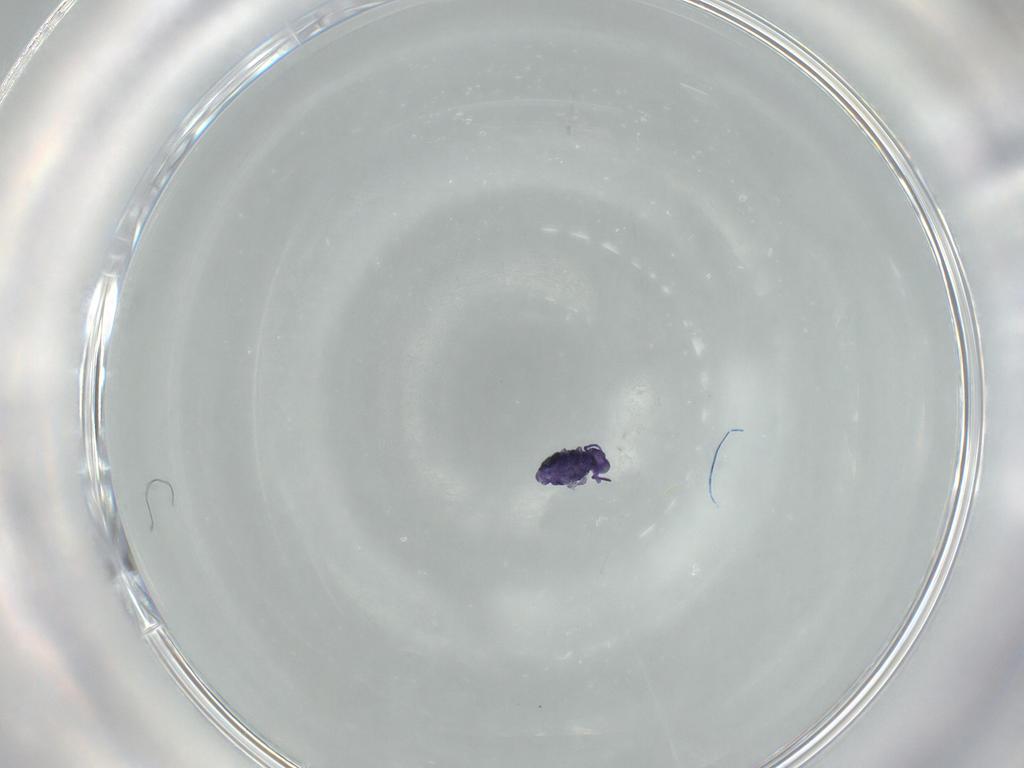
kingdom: Animalia
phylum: Arthropoda
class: Collembola
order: Symphypleona
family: Katiannidae
